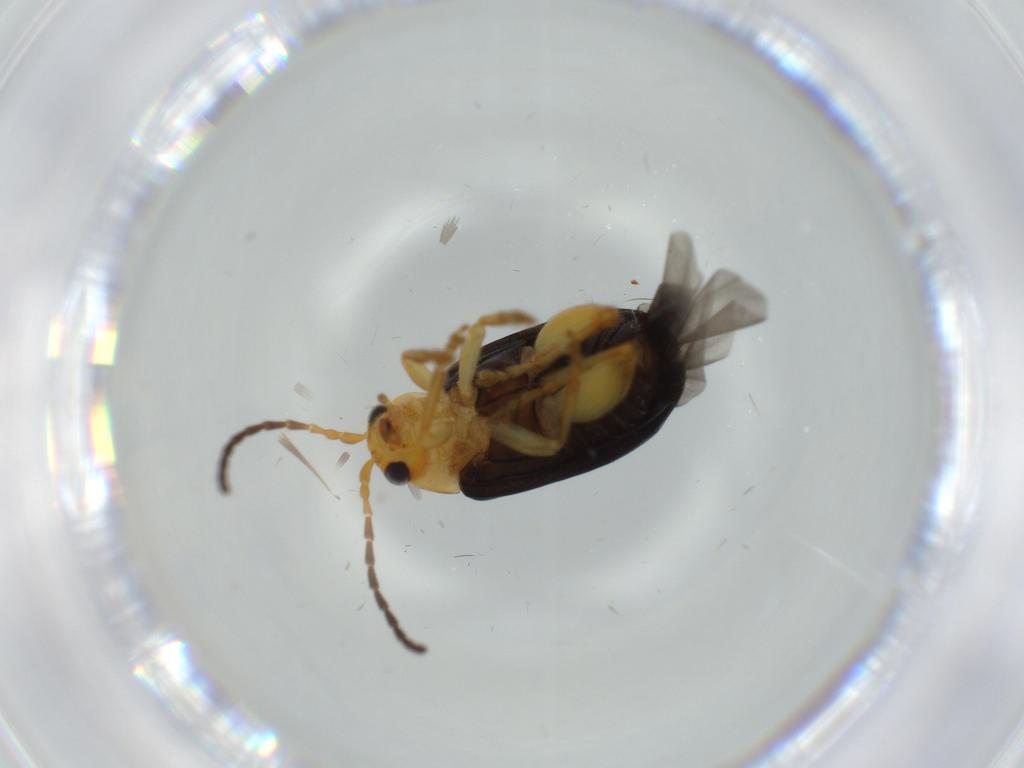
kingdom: Animalia
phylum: Arthropoda
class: Insecta
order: Coleoptera
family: Chrysomelidae
